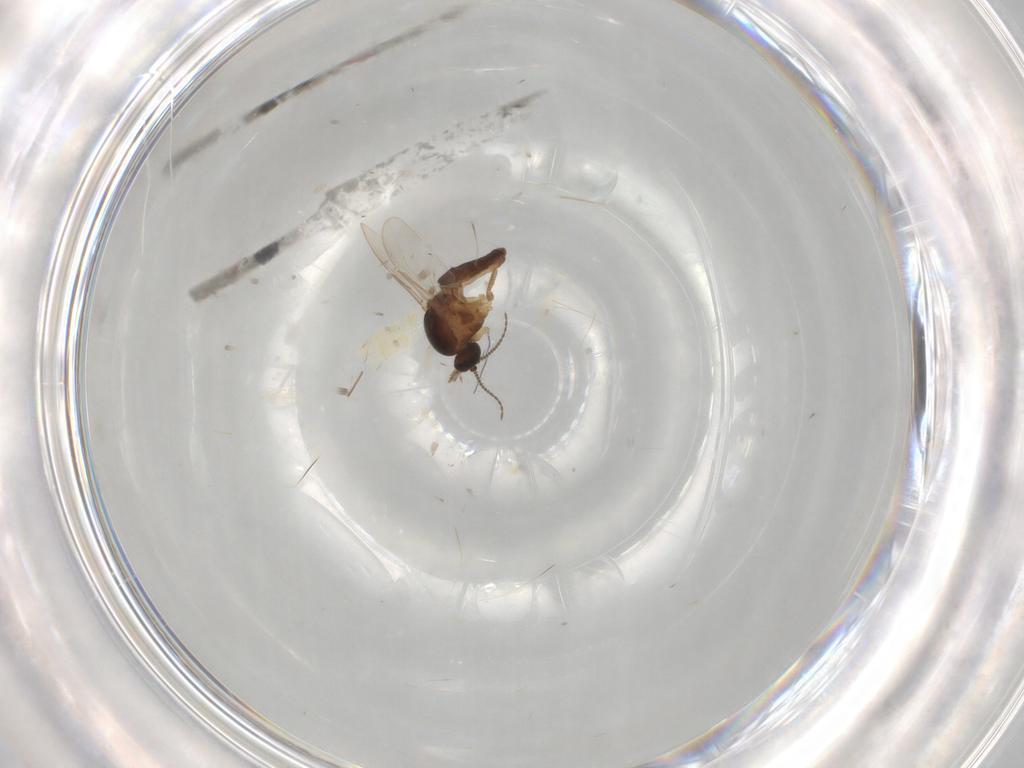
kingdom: Animalia
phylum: Arthropoda
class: Insecta
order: Diptera
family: Ceratopogonidae
